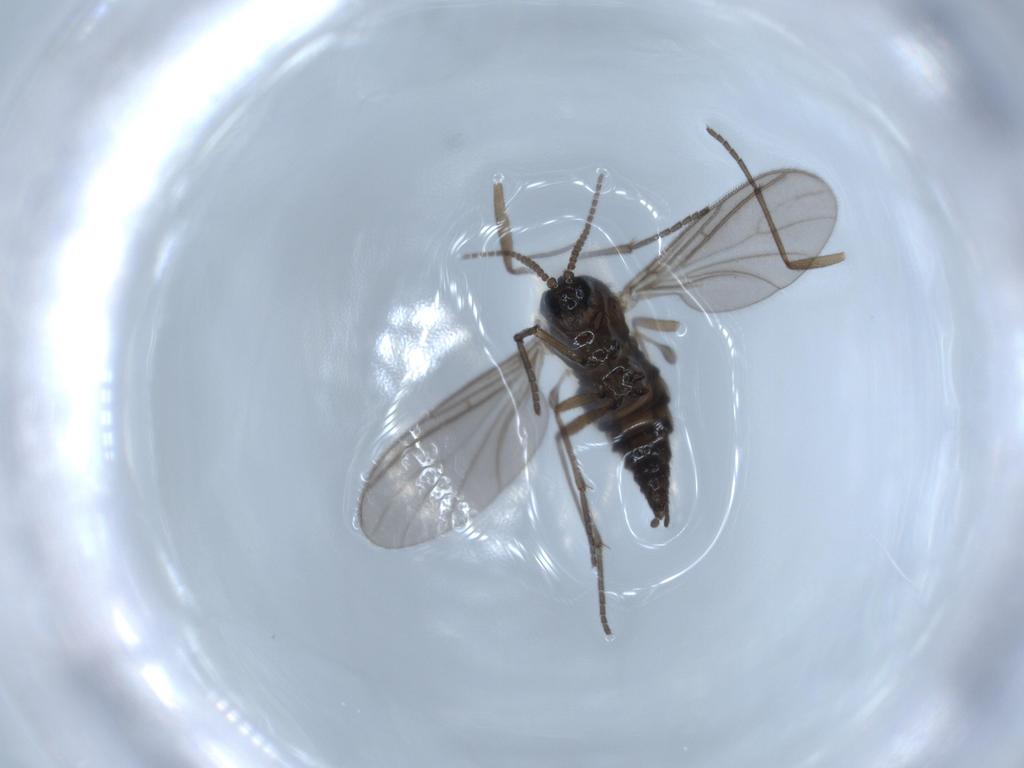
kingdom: Animalia
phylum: Arthropoda
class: Insecta
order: Diptera
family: Sciaridae
